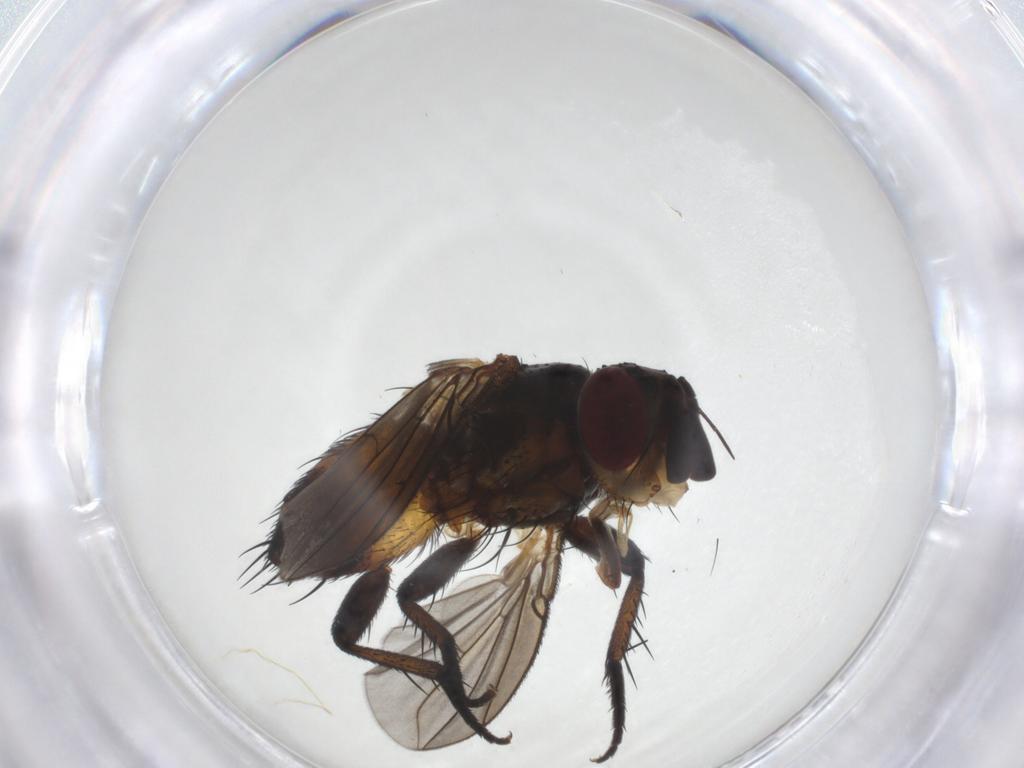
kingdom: Animalia
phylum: Arthropoda
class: Insecta
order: Diptera
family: Tachinidae
